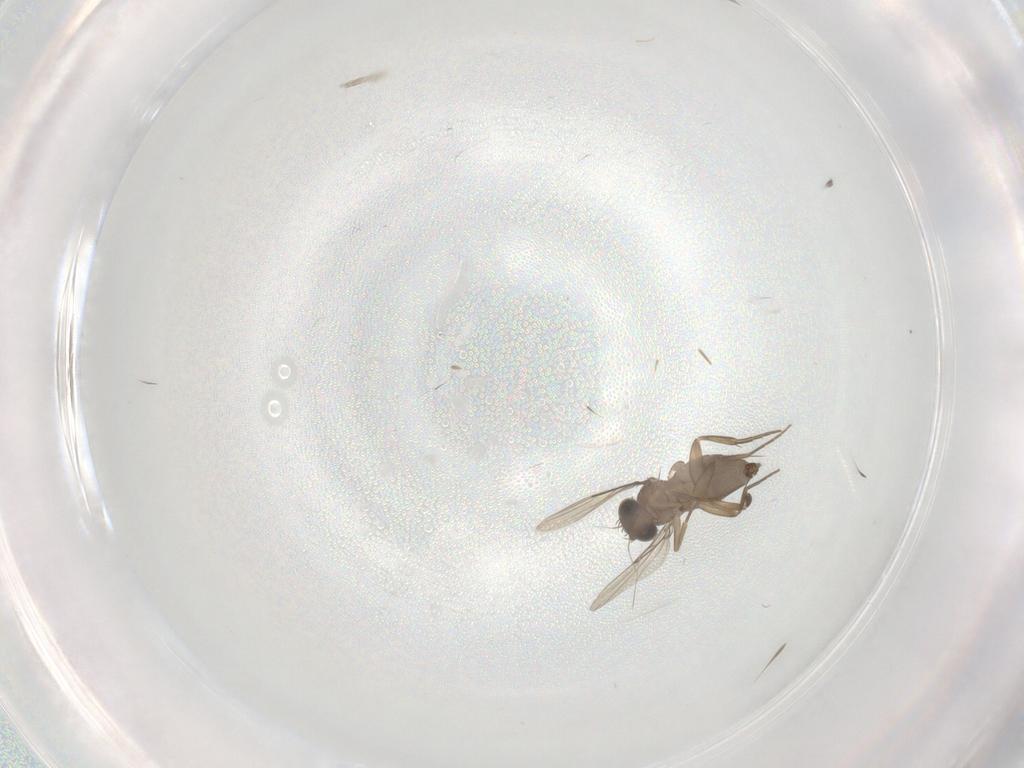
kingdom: Animalia
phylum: Arthropoda
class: Insecta
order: Diptera
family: Phoridae
